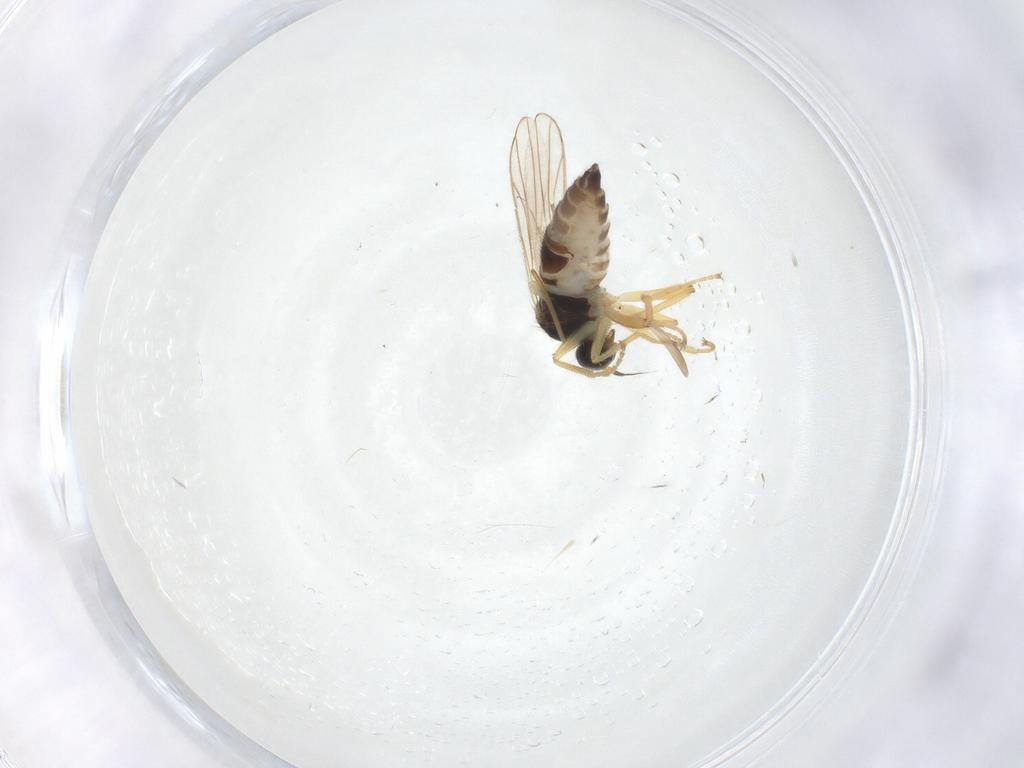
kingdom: Animalia
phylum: Arthropoda
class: Insecta
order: Diptera
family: Hybotidae
